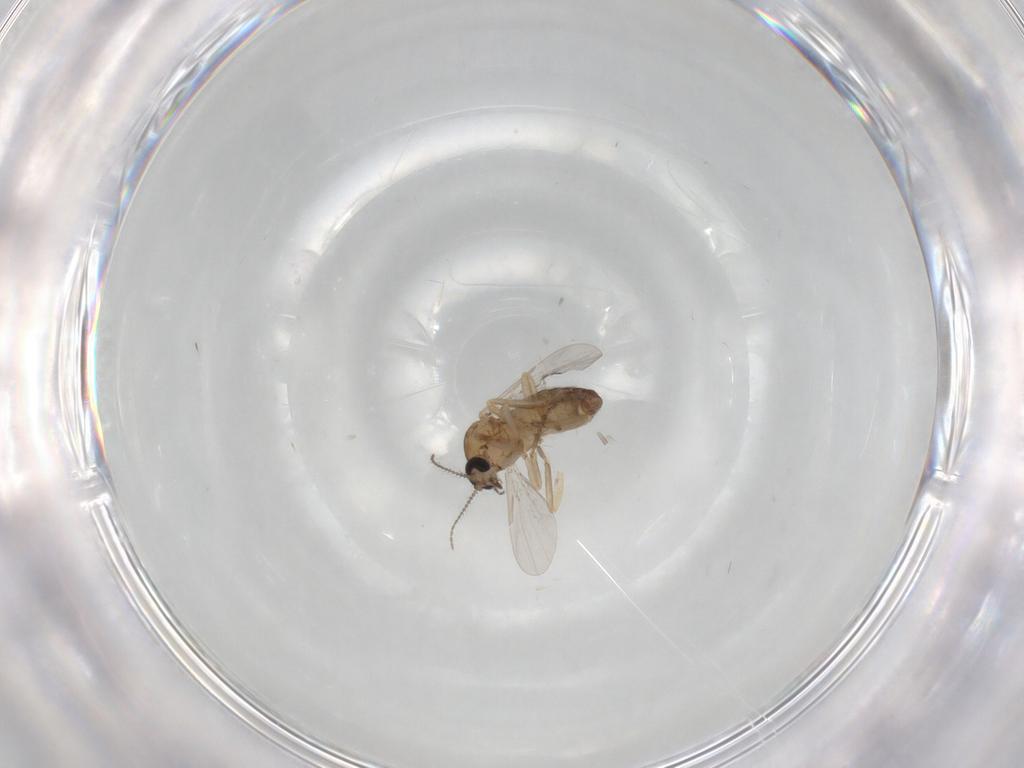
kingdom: Animalia
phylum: Arthropoda
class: Insecta
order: Diptera
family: Ceratopogonidae
